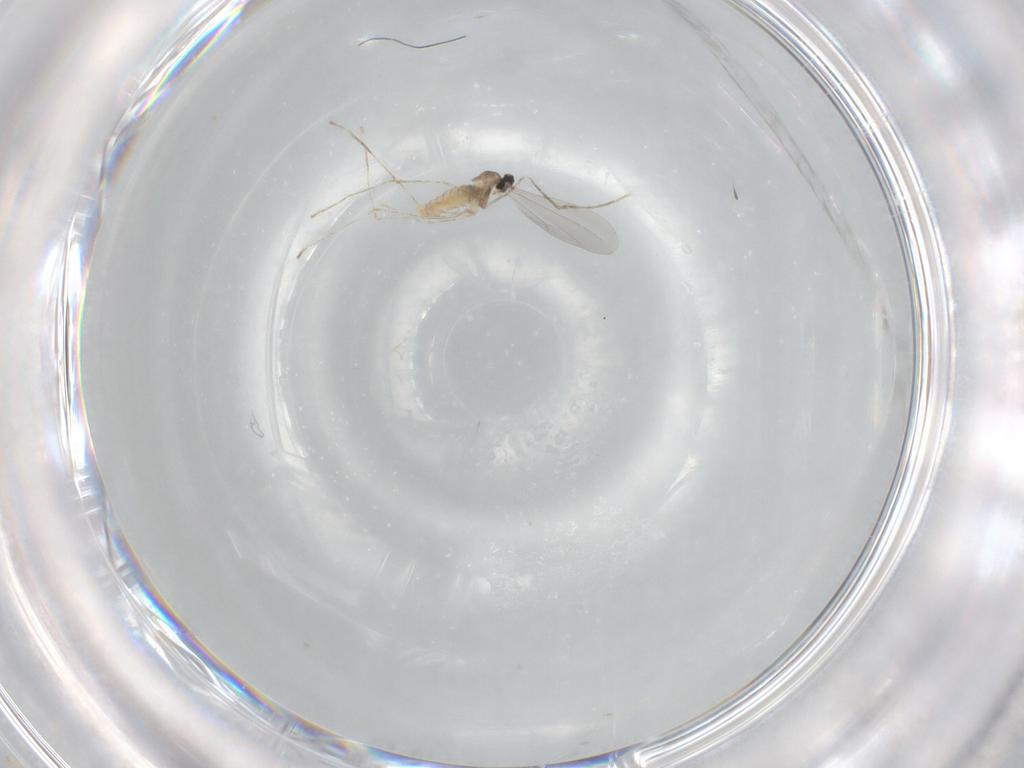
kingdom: Animalia
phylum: Arthropoda
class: Insecta
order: Diptera
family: Cecidomyiidae
